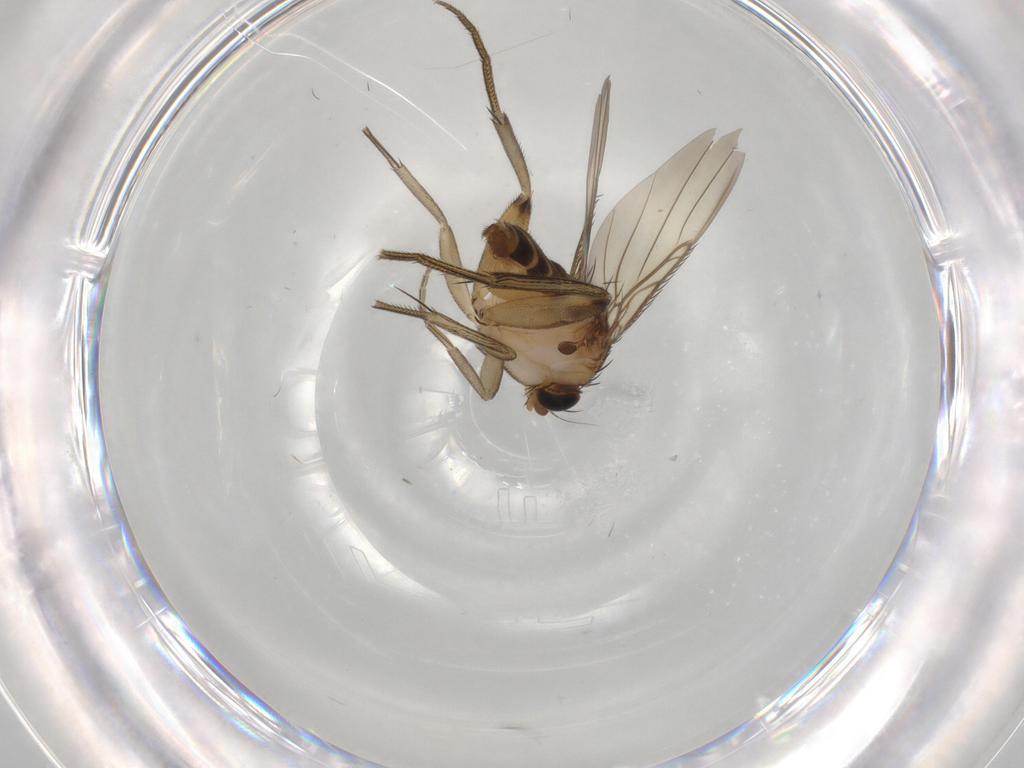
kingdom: Animalia
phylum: Arthropoda
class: Insecta
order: Diptera
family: Phoridae
